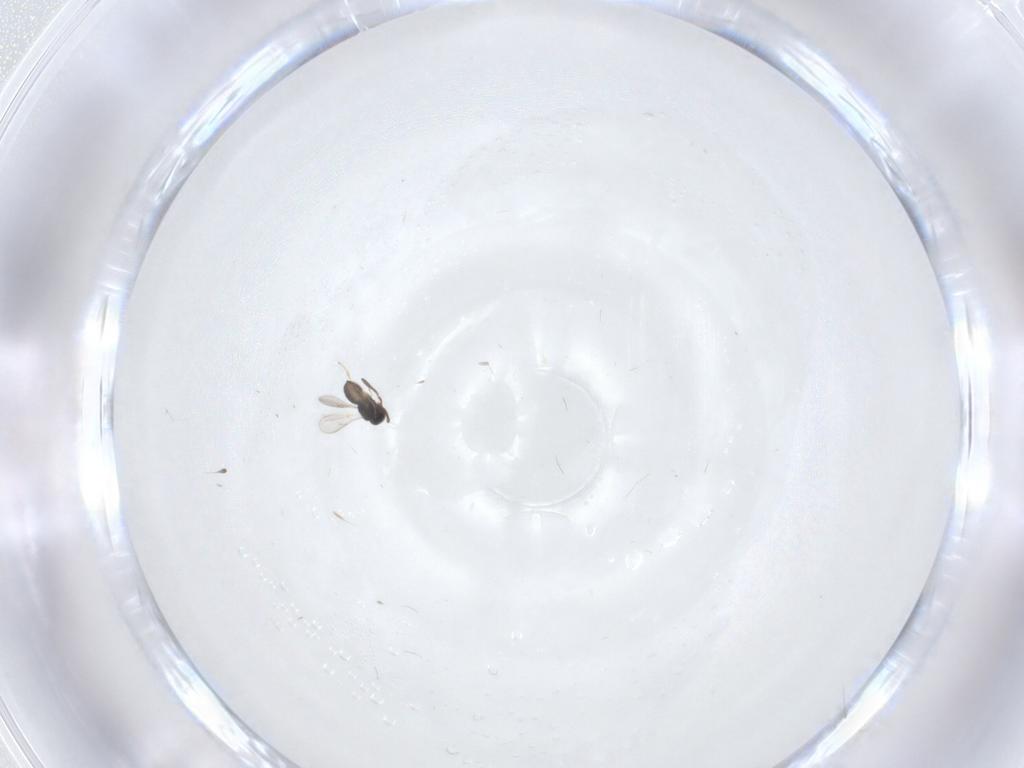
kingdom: Animalia
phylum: Arthropoda
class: Insecta
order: Hymenoptera
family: Scelionidae
